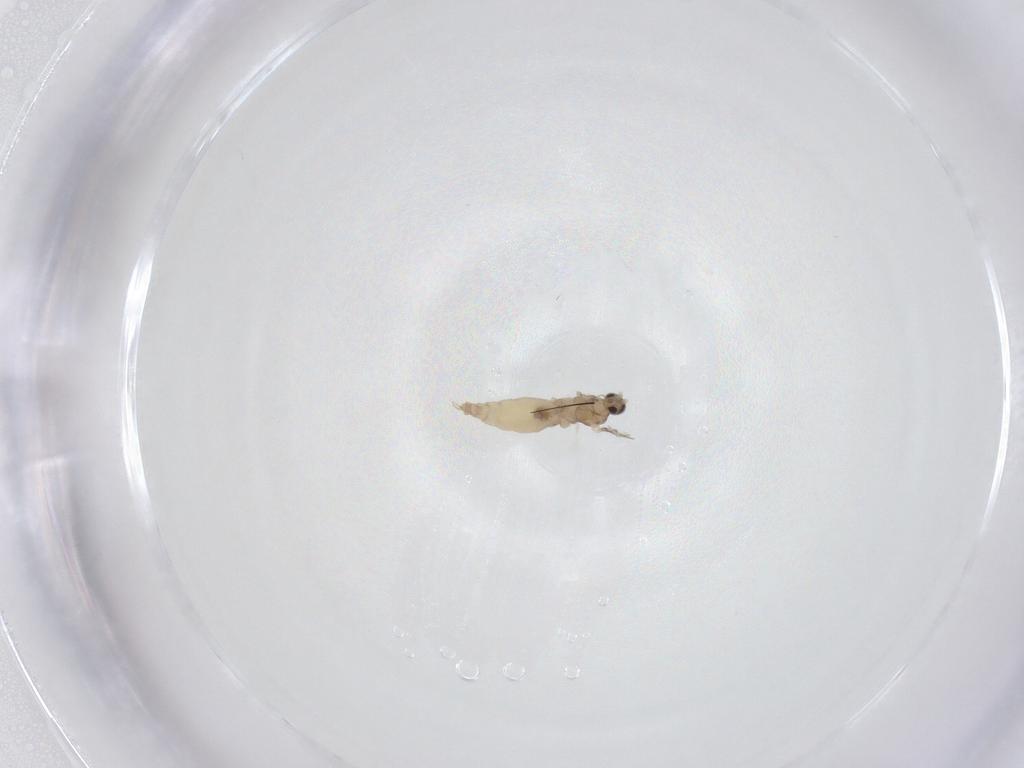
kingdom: Animalia
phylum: Arthropoda
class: Insecta
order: Diptera
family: Cecidomyiidae
